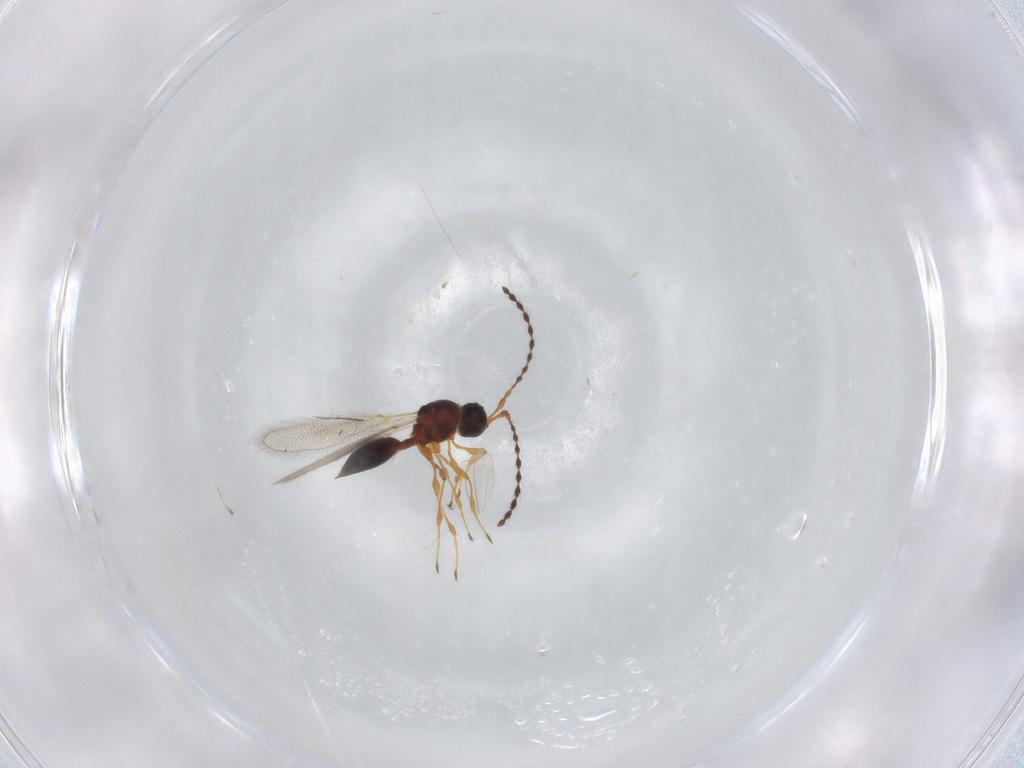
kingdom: Animalia
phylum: Arthropoda
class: Insecta
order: Hymenoptera
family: Diapriidae
